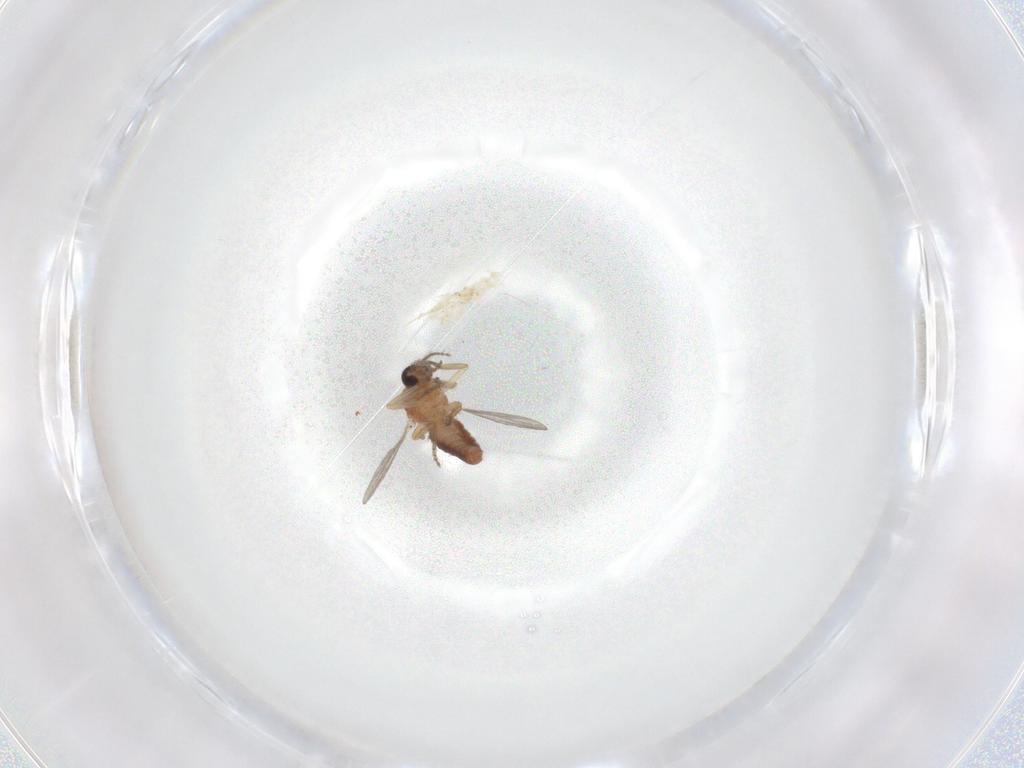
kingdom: Animalia
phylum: Arthropoda
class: Insecta
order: Diptera
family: Ceratopogonidae
